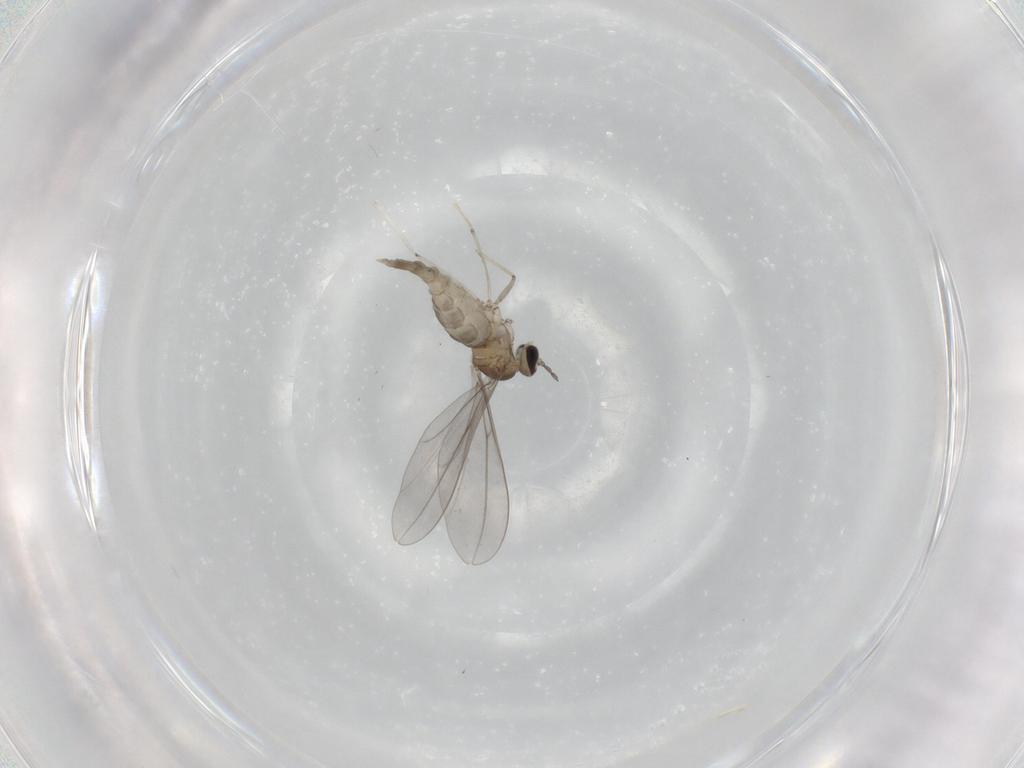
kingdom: Animalia
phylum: Arthropoda
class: Insecta
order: Diptera
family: Cecidomyiidae
